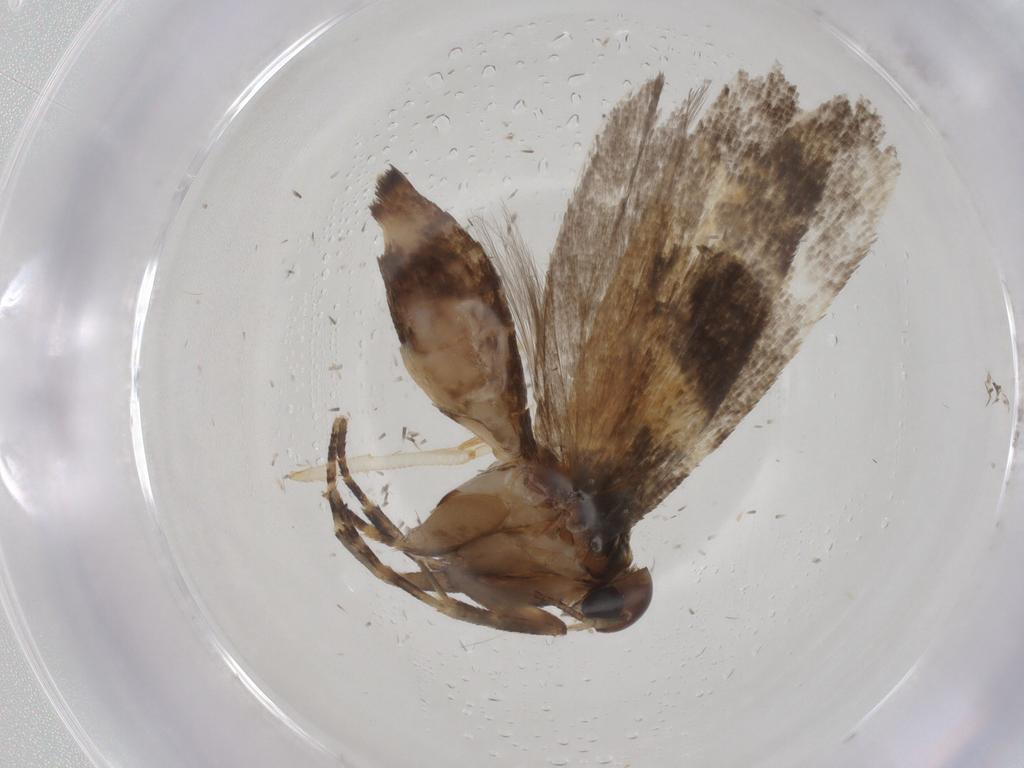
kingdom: Animalia
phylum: Arthropoda
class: Insecta
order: Lepidoptera
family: Gelechiidae
